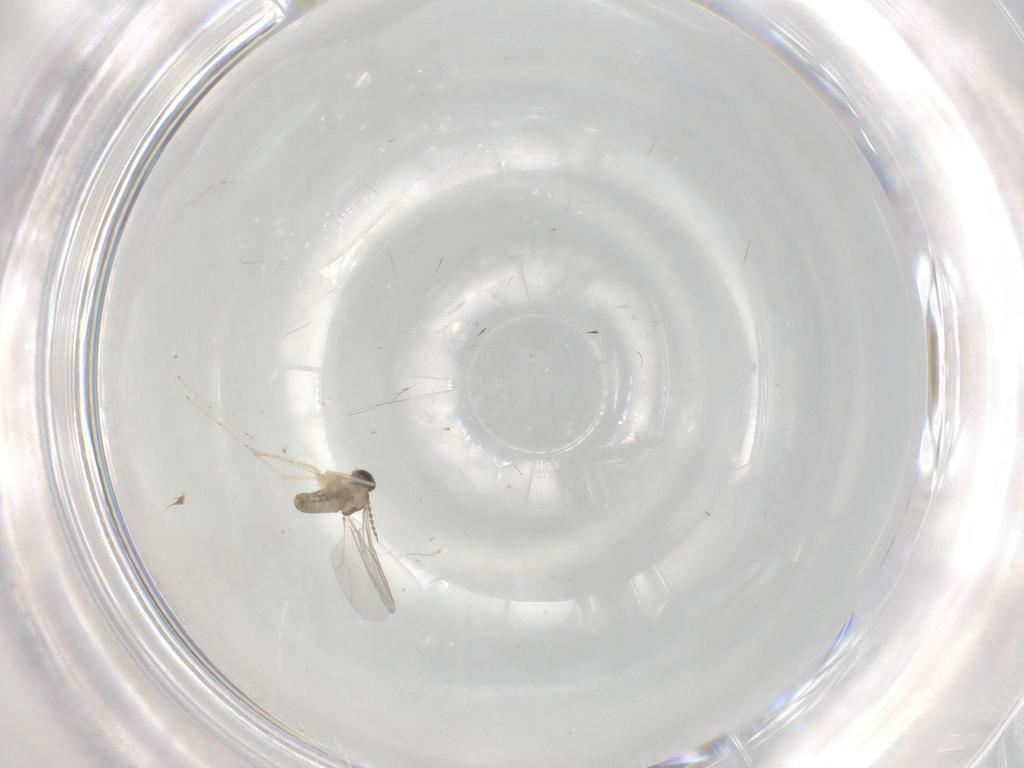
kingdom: Animalia
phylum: Arthropoda
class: Insecta
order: Diptera
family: Cecidomyiidae
